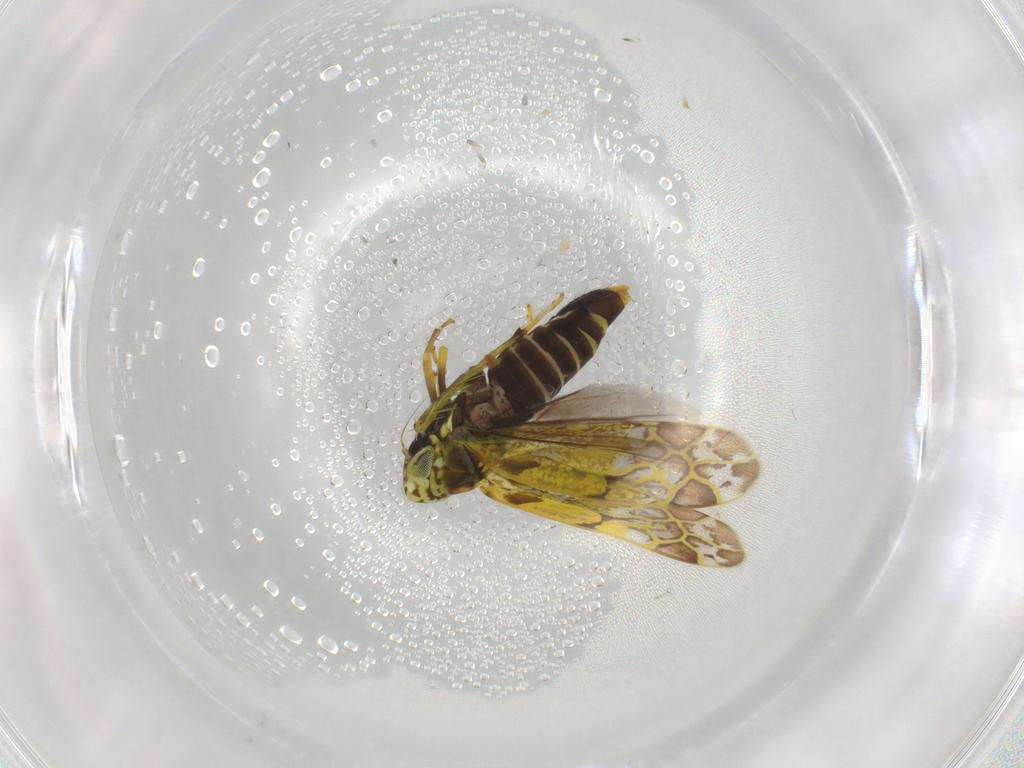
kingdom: Animalia
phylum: Arthropoda
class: Insecta
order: Hemiptera
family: Cicadellidae
